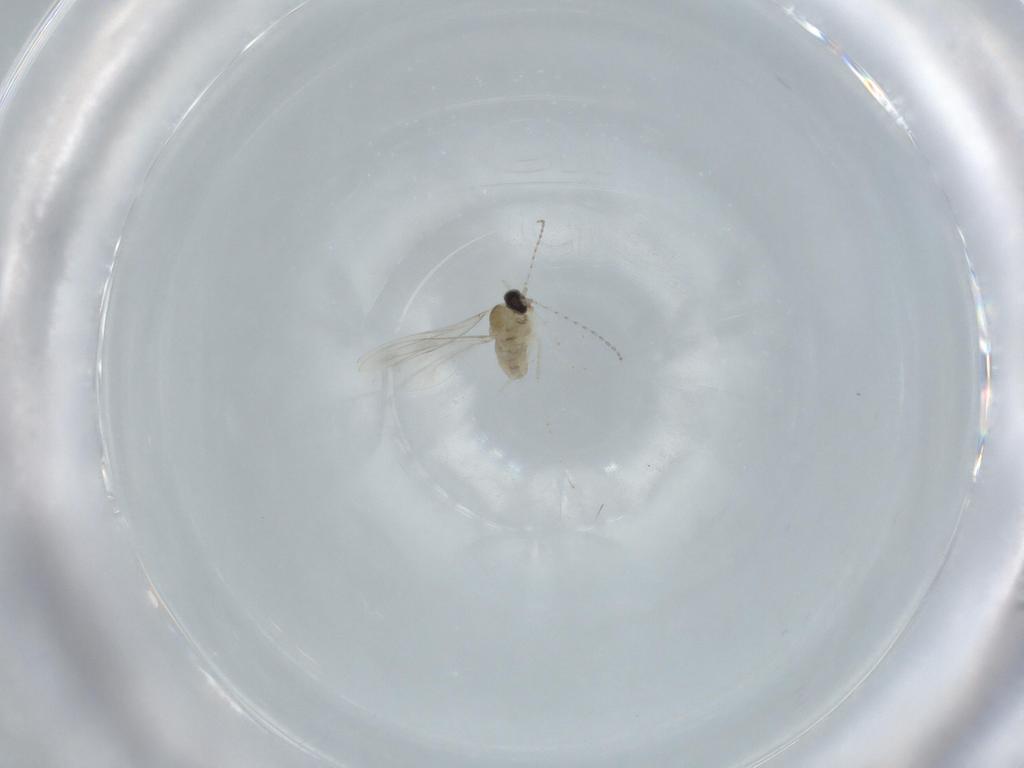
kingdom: Animalia
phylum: Arthropoda
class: Insecta
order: Diptera
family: Cecidomyiidae
